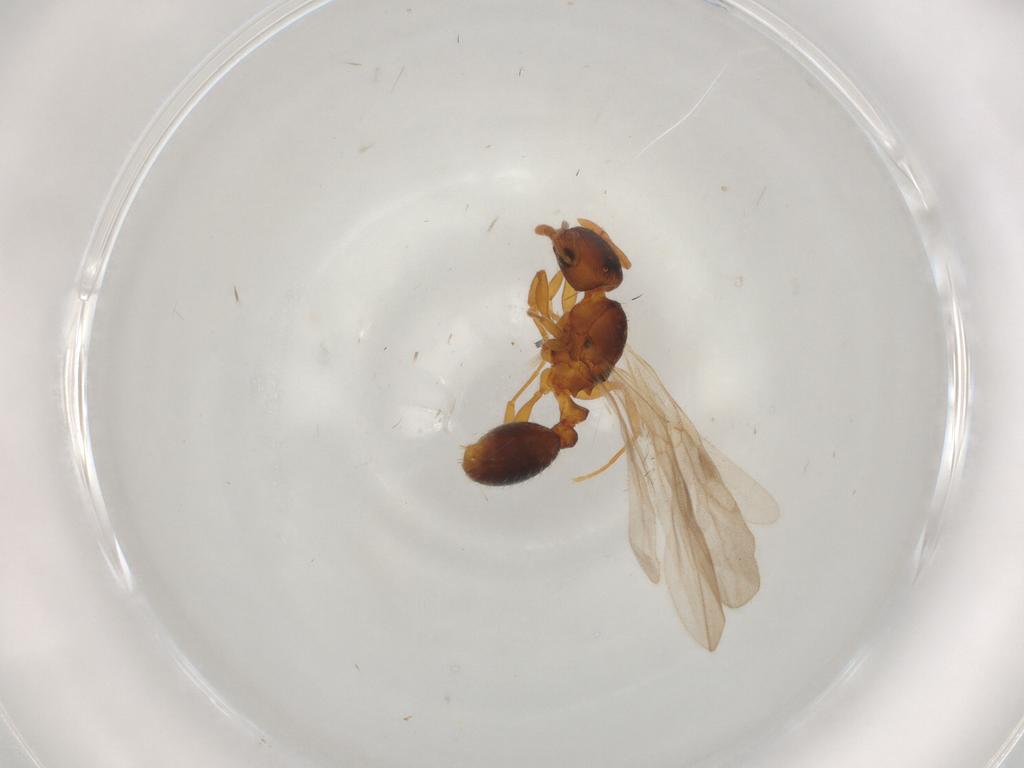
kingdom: Animalia
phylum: Arthropoda
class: Insecta
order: Hymenoptera
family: Formicidae
